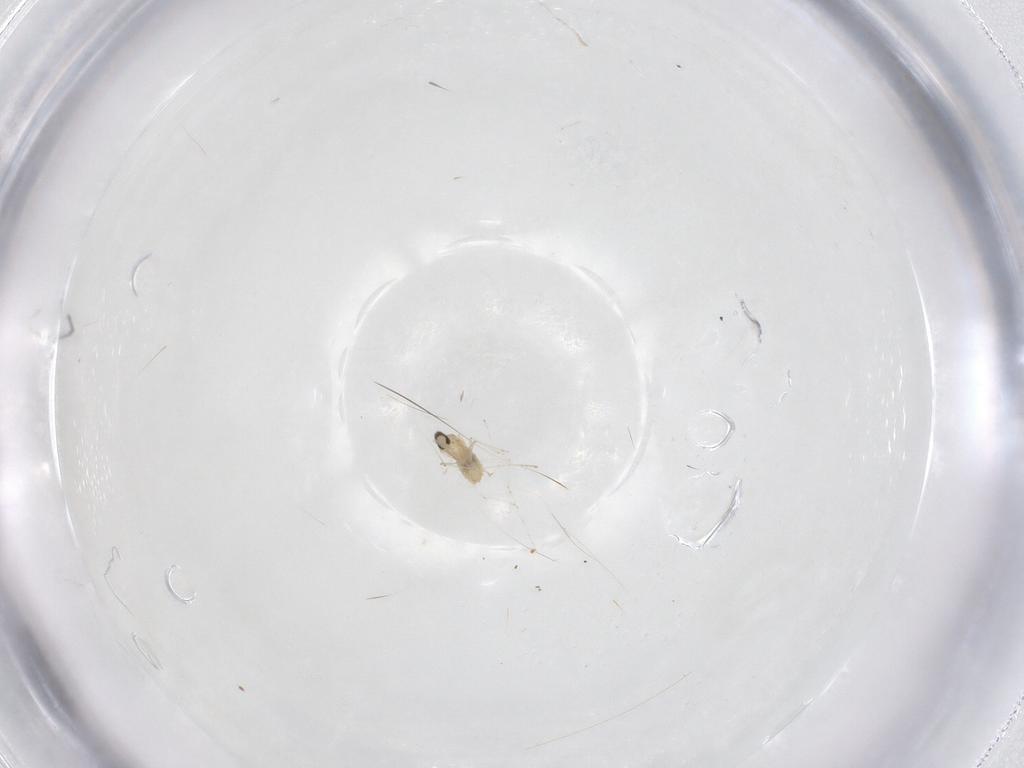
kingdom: Animalia
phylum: Arthropoda
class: Insecta
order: Diptera
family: Cecidomyiidae
